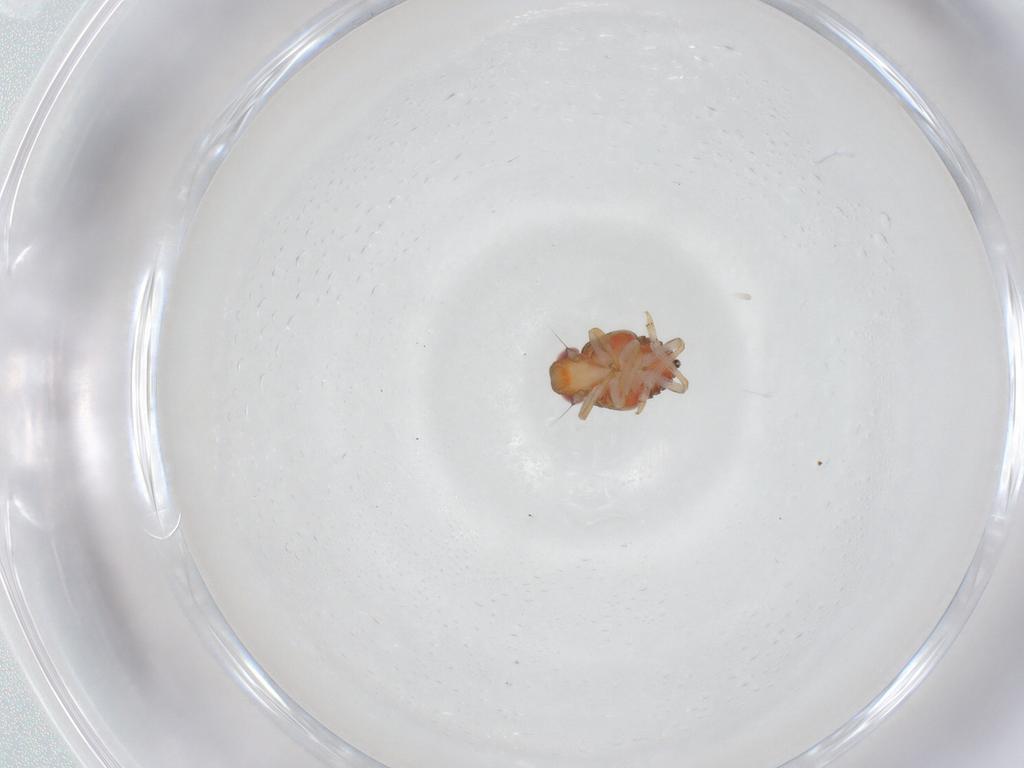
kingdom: Animalia
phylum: Arthropoda
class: Insecta
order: Hemiptera
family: Issidae
